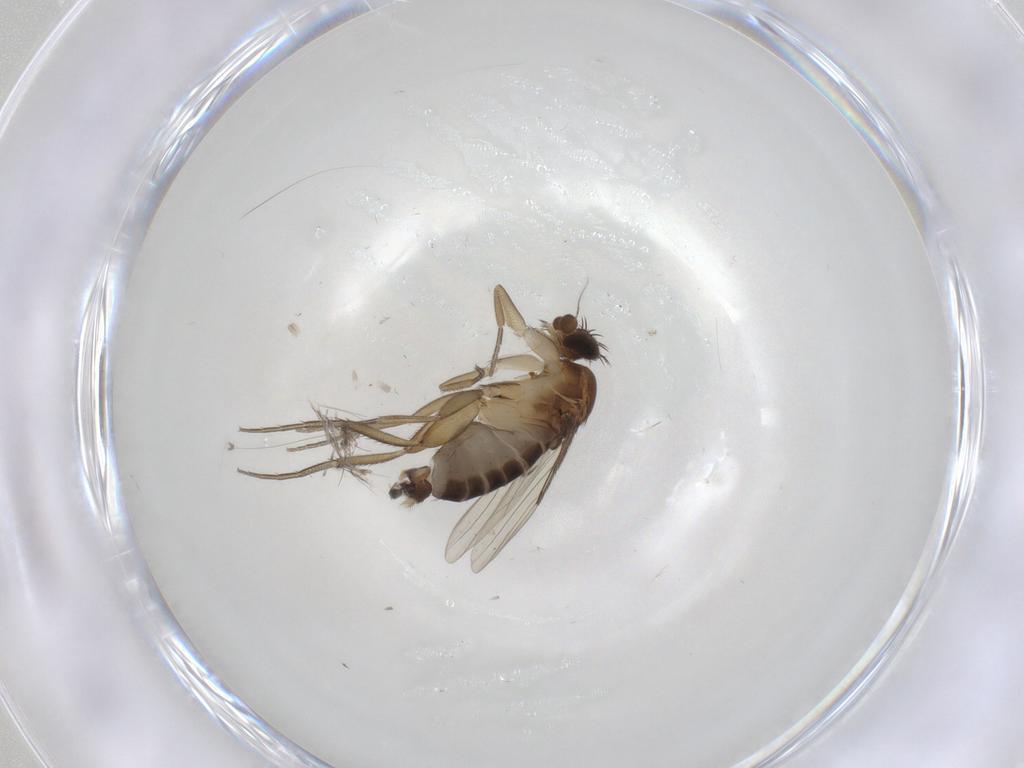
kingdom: Animalia
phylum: Arthropoda
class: Insecta
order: Diptera
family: Phoridae
